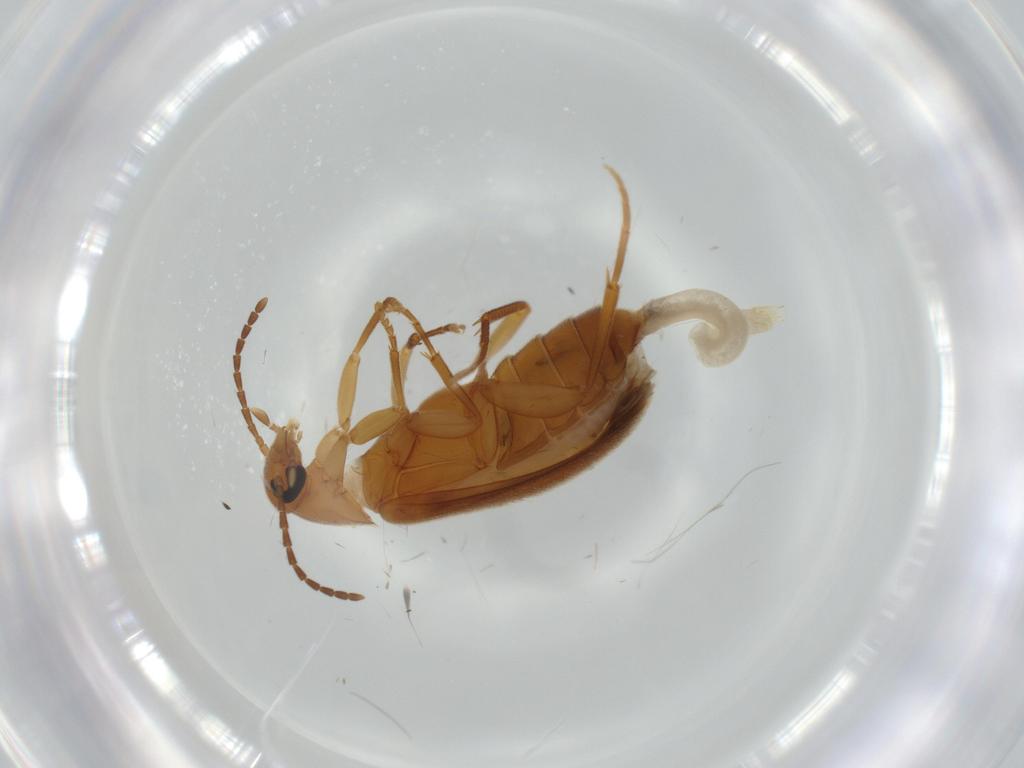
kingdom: Animalia
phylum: Arthropoda
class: Insecta
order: Coleoptera
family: Scraptiidae
